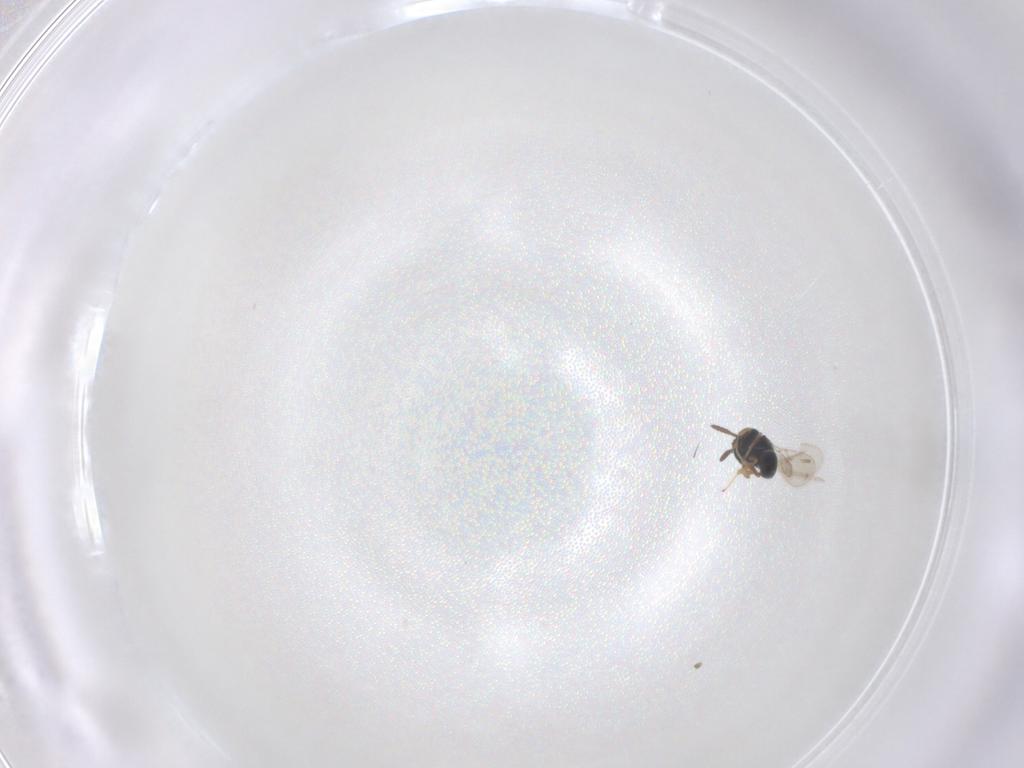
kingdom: Animalia
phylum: Arthropoda
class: Insecta
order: Hymenoptera
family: Scelionidae
